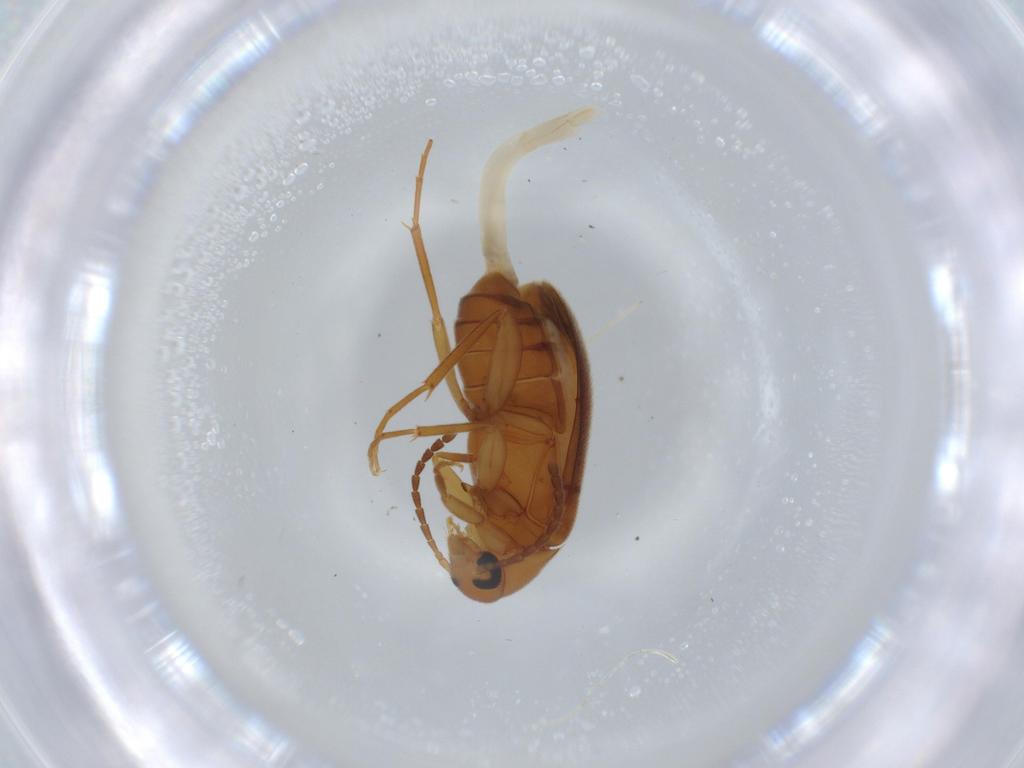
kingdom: Animalia
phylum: Arthropoda
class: Insecta
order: Coleoptera
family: Scraptiidae
